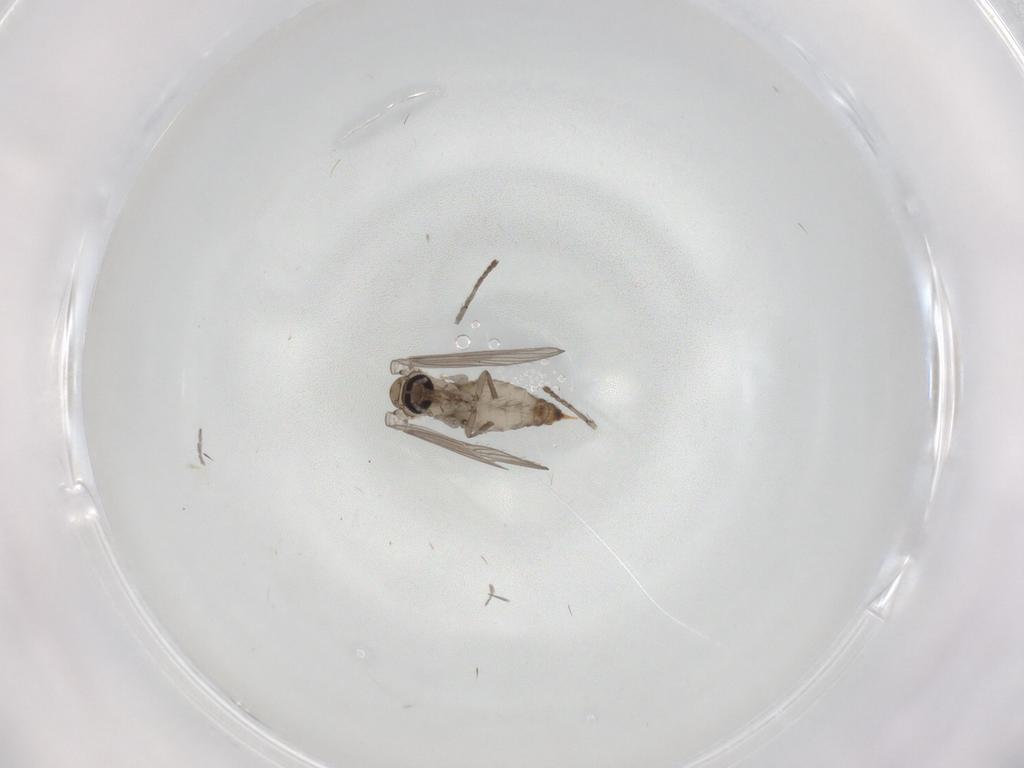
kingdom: Animalia
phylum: Arthropoda
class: Insecta
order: Diptera
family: Psychodidae
